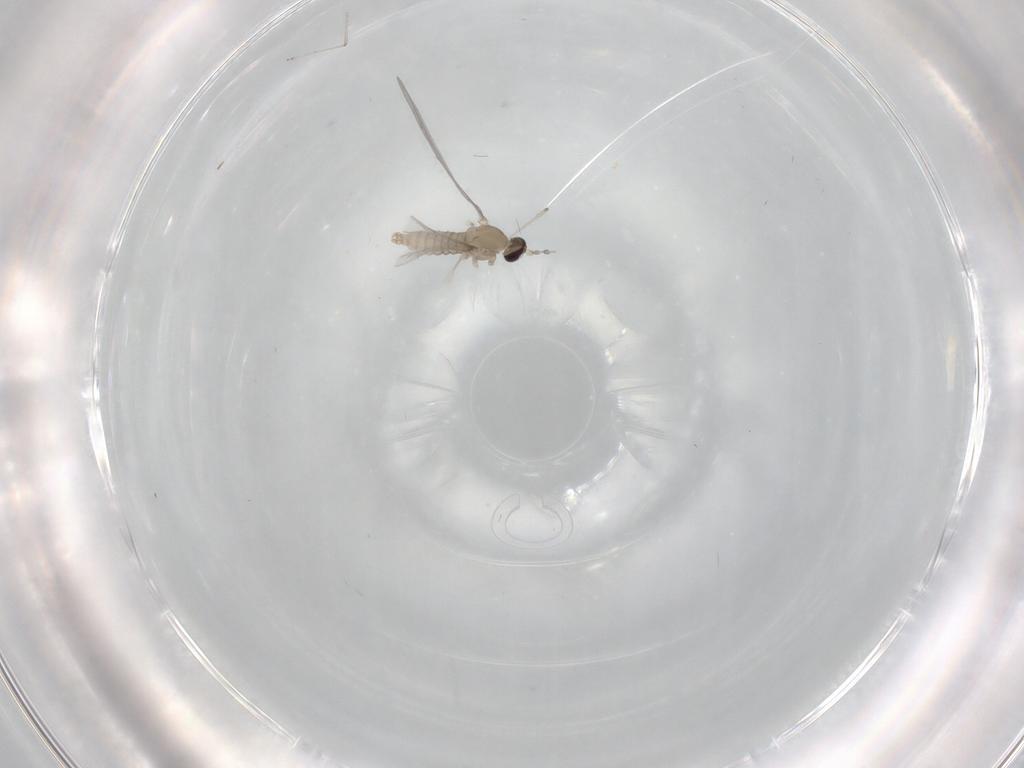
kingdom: Animalia
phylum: Arthropoda
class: Insecta
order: Diptera
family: Cecidomyiidae
